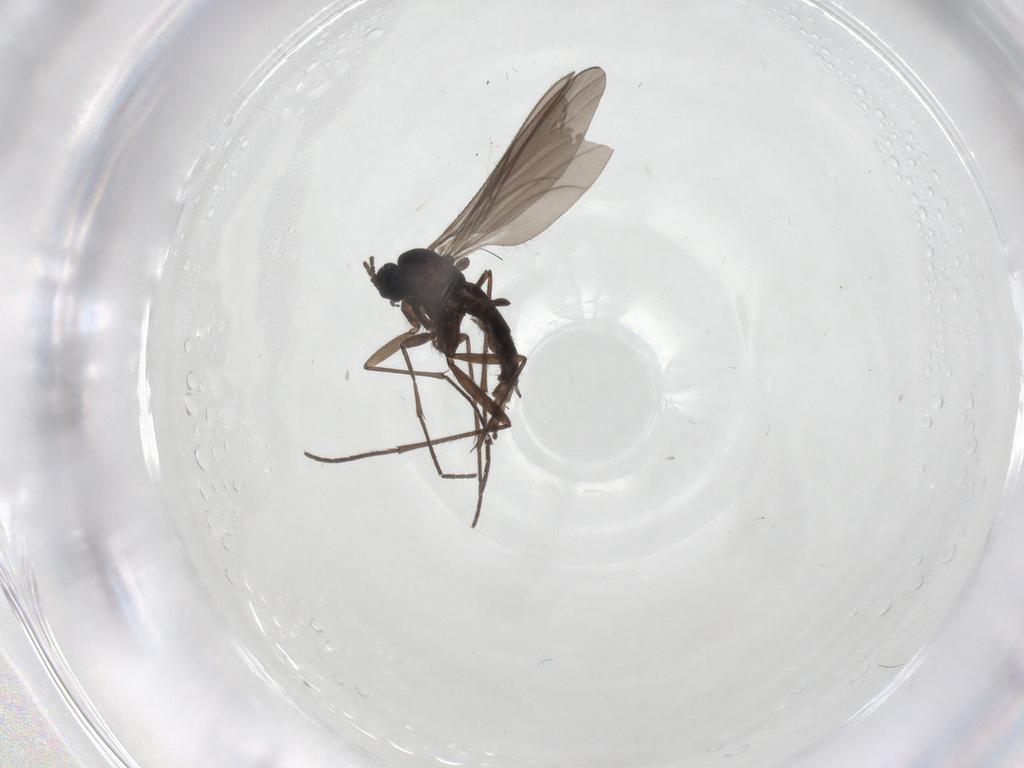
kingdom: Animalia
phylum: Arthropoda
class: Insecta
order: Diptera
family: Sciaridae
